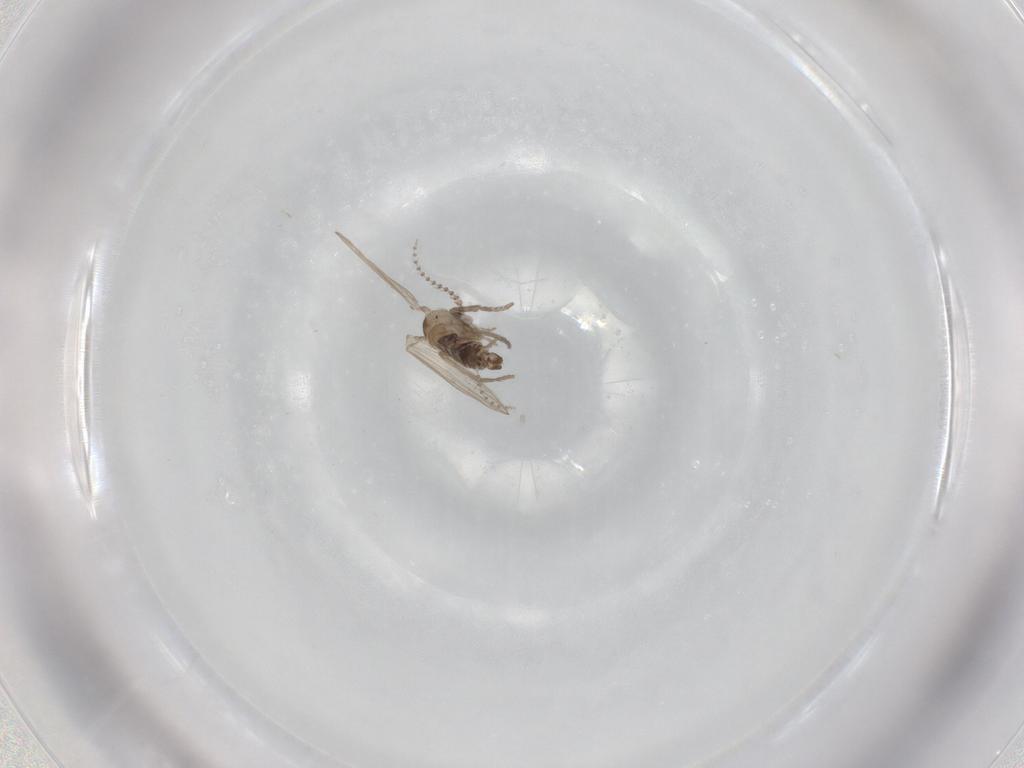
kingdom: Animalia
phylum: Arthropoda
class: Insecta
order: Diptera
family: Psychodidae
